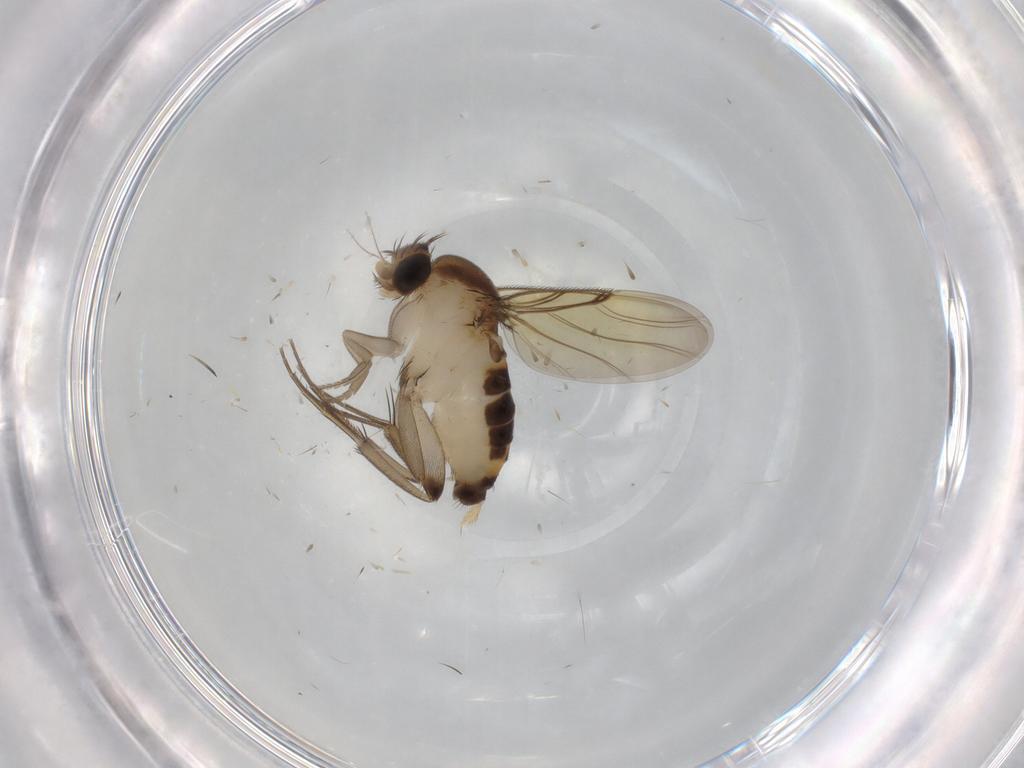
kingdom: Animalia
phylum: Arthropoda
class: Insecta
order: Diptera
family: Phoridae
